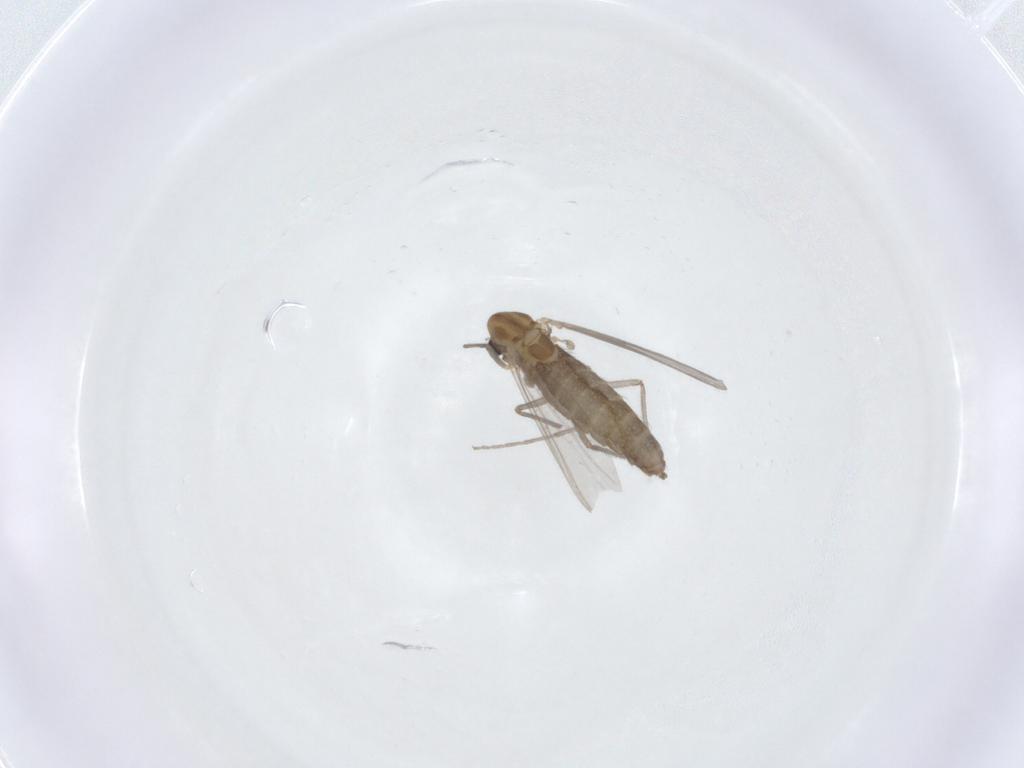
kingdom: Animalia
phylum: Arthropoda
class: Insecta
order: Diptera
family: Chironomidae
